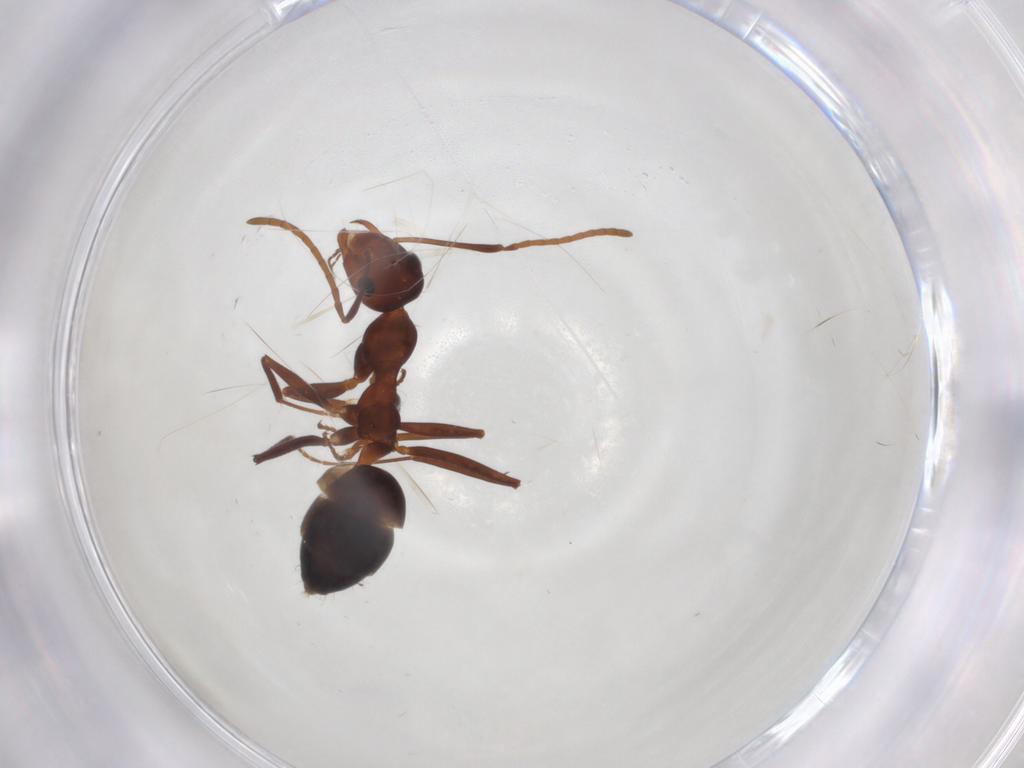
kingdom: Animalia
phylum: Arthropoda
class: Insecta
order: Hymenoptera
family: Formicidae
